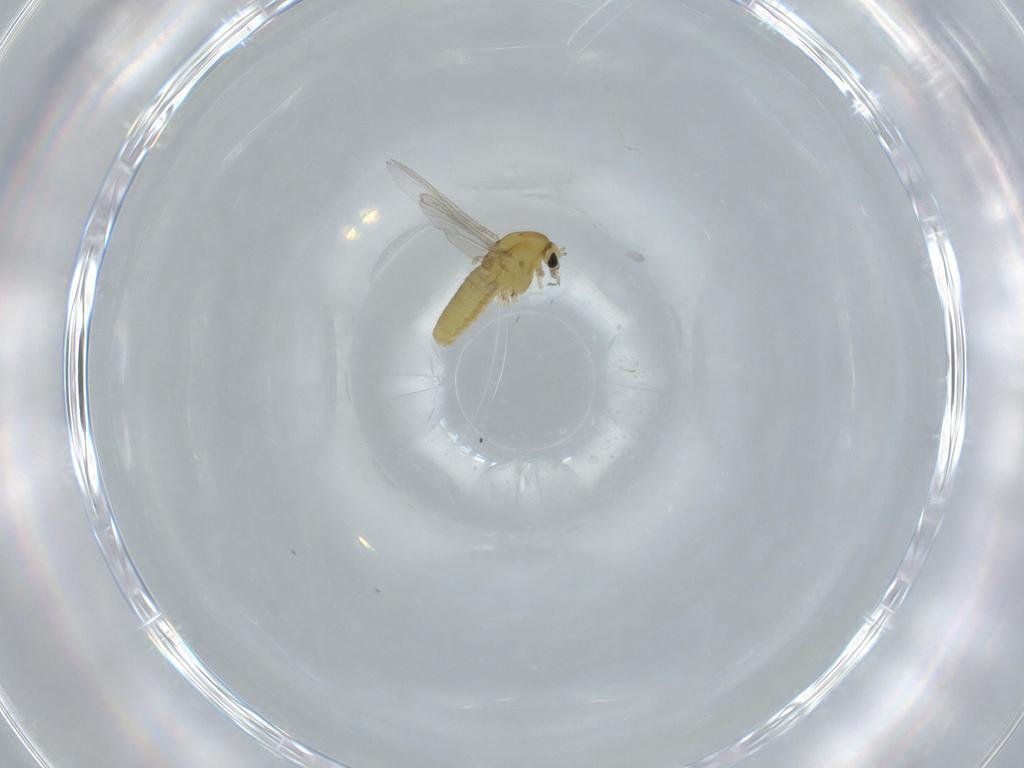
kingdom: Animalia
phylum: Arthropoda
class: Insecta
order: Diptera
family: Chironomidae
